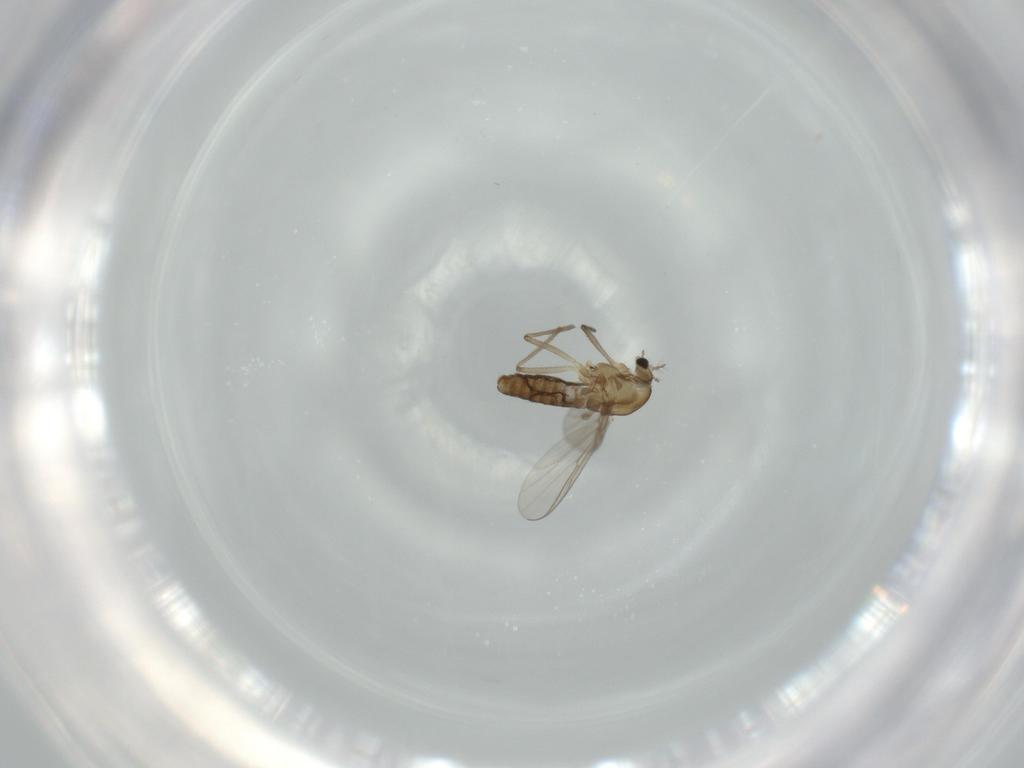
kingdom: Animalia
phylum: Arthropoda
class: Insecta
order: Diptera
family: Chironomidae
